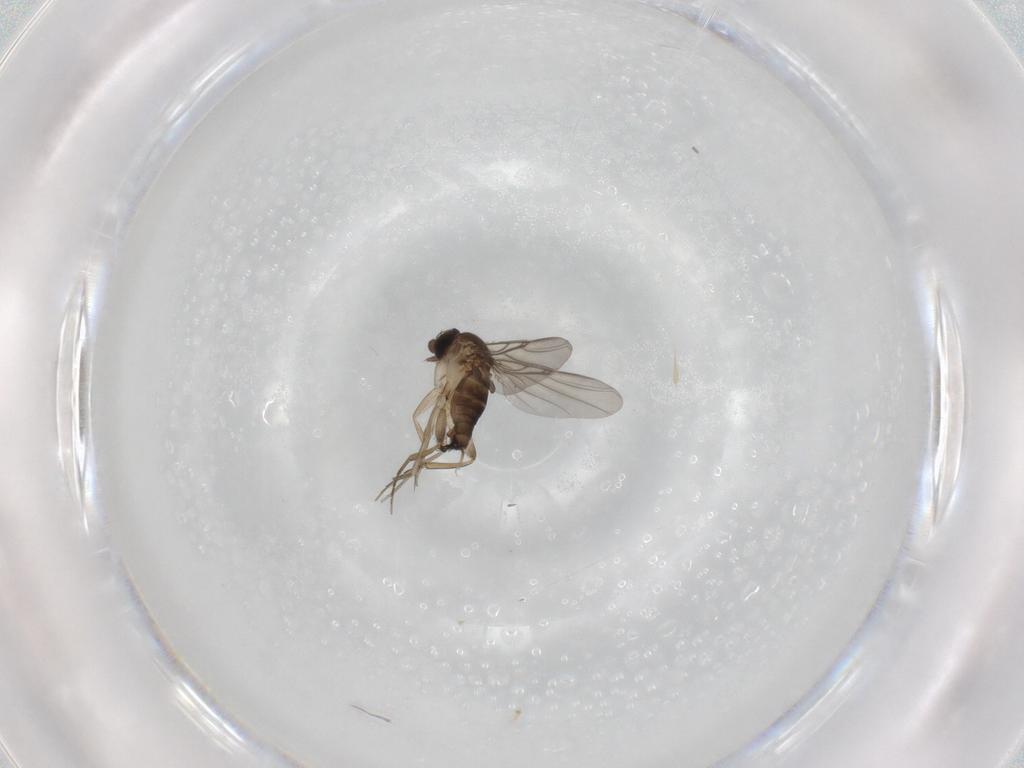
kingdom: Animalia
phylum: Arthropoda
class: Insecta
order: Diptera
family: Phoridae
